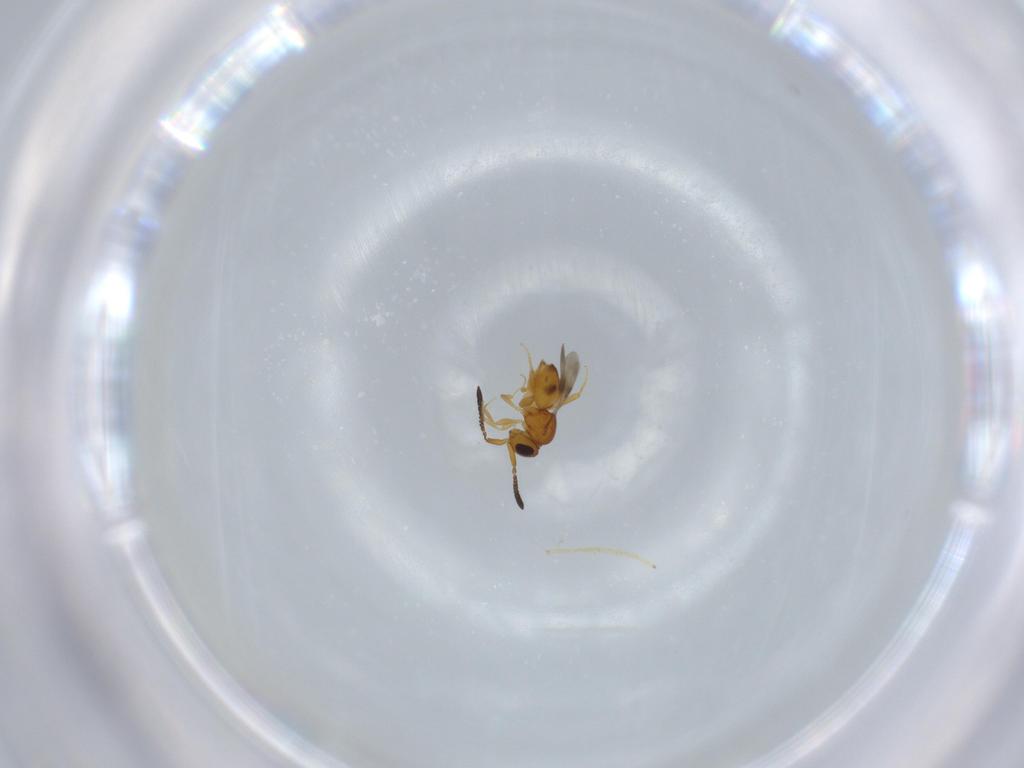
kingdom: Animalia
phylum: Arthropoda
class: Insecta
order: Hymenoptera
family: Ceraphronidae
